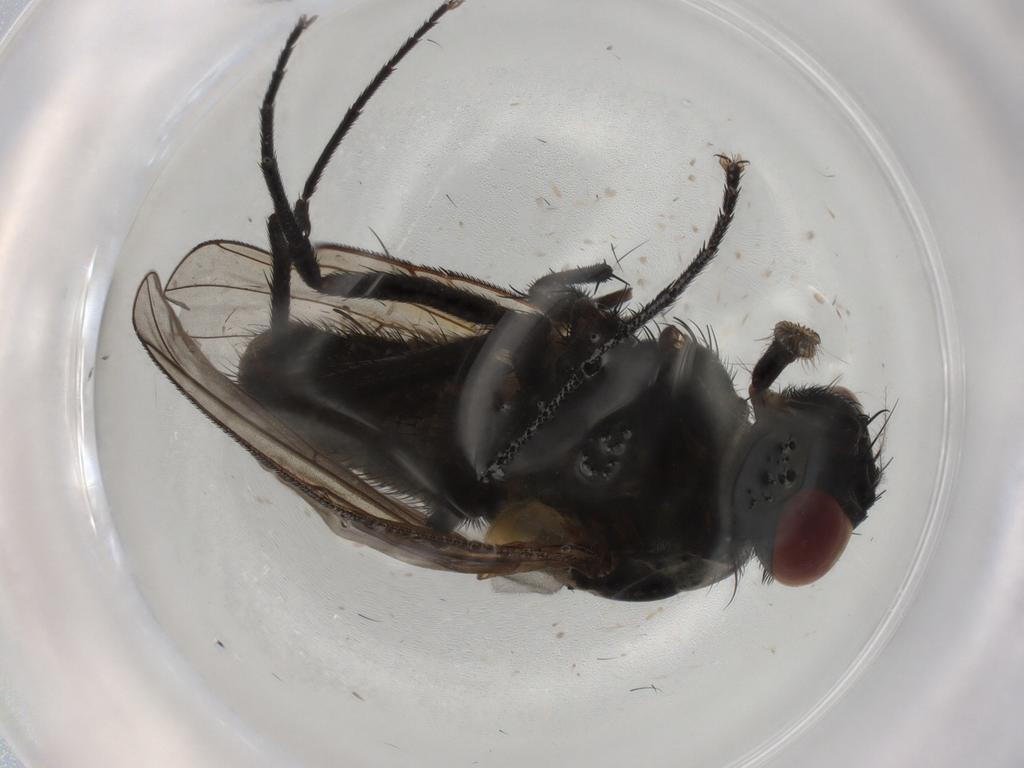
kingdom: Animalia
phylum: Arthropoda
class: Insecta
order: Diptera
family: Muscidae
